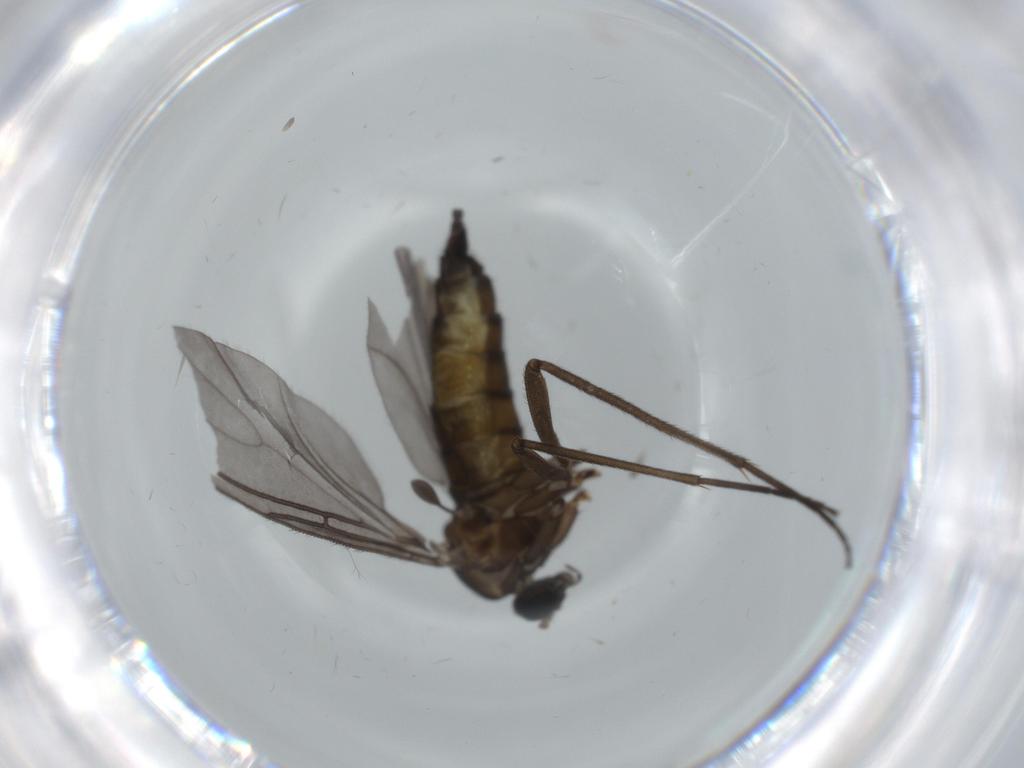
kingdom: Animalia
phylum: Arthropoda
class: Insecta
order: Diptera
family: Sciaridae
